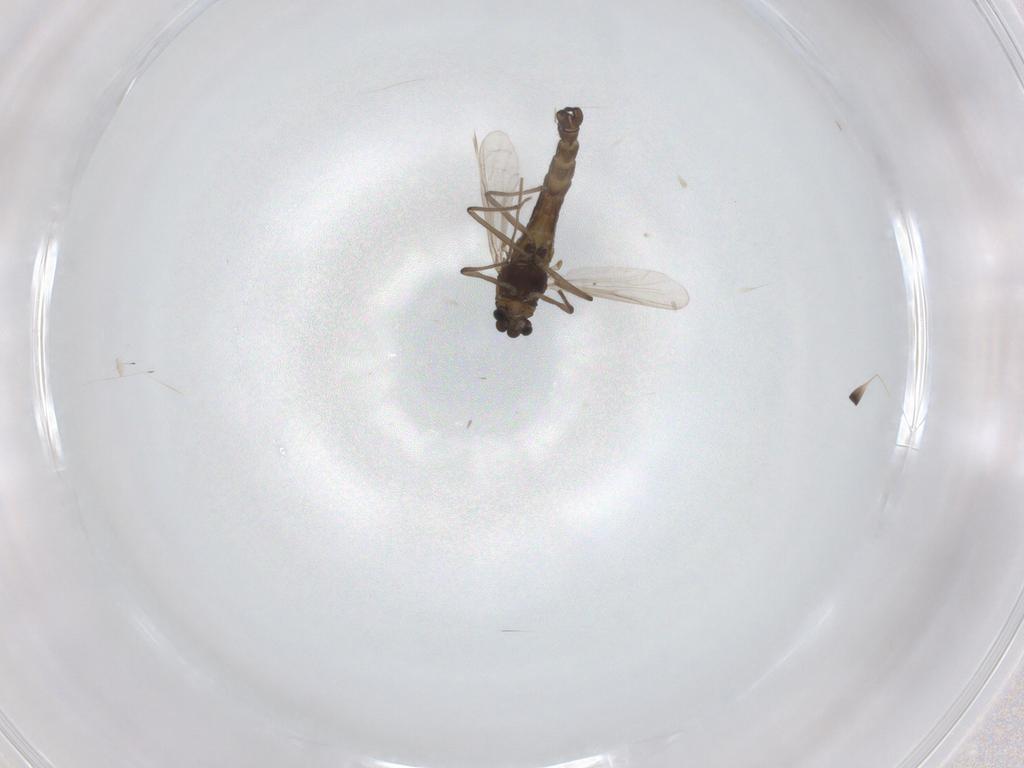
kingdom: Animalia
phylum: Arthropoda
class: Insecta
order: Diptera
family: Chironomidae
